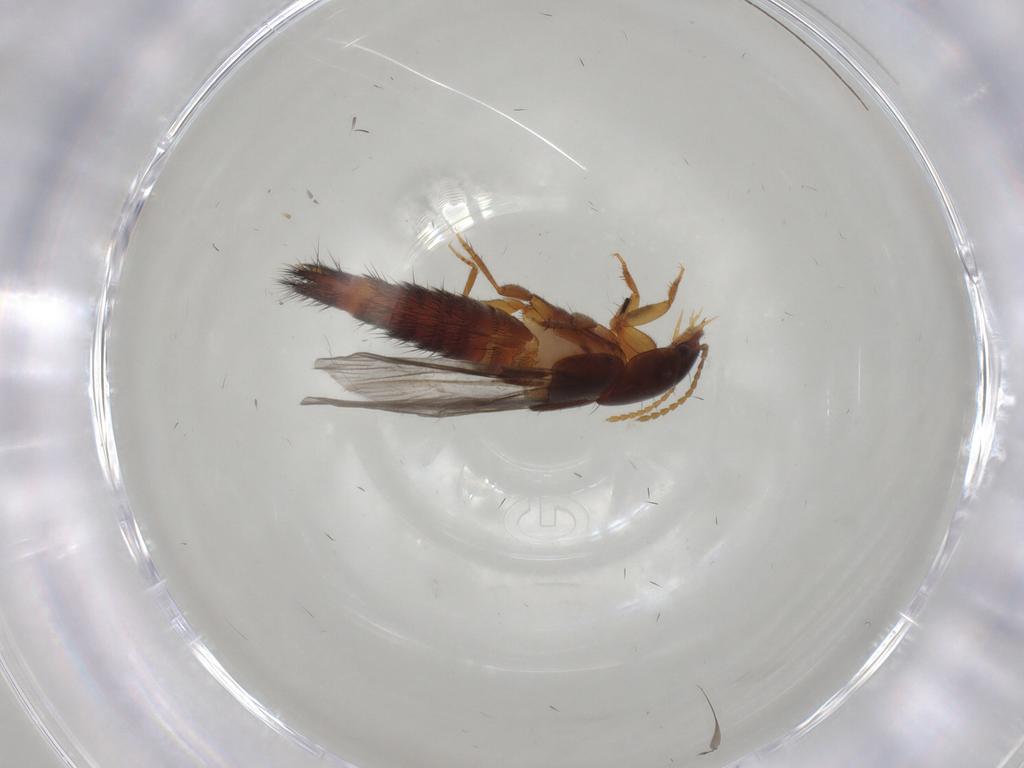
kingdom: Animalia
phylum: Arthropoda
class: Insecta
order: Coleoptera
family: Staphylinidae
